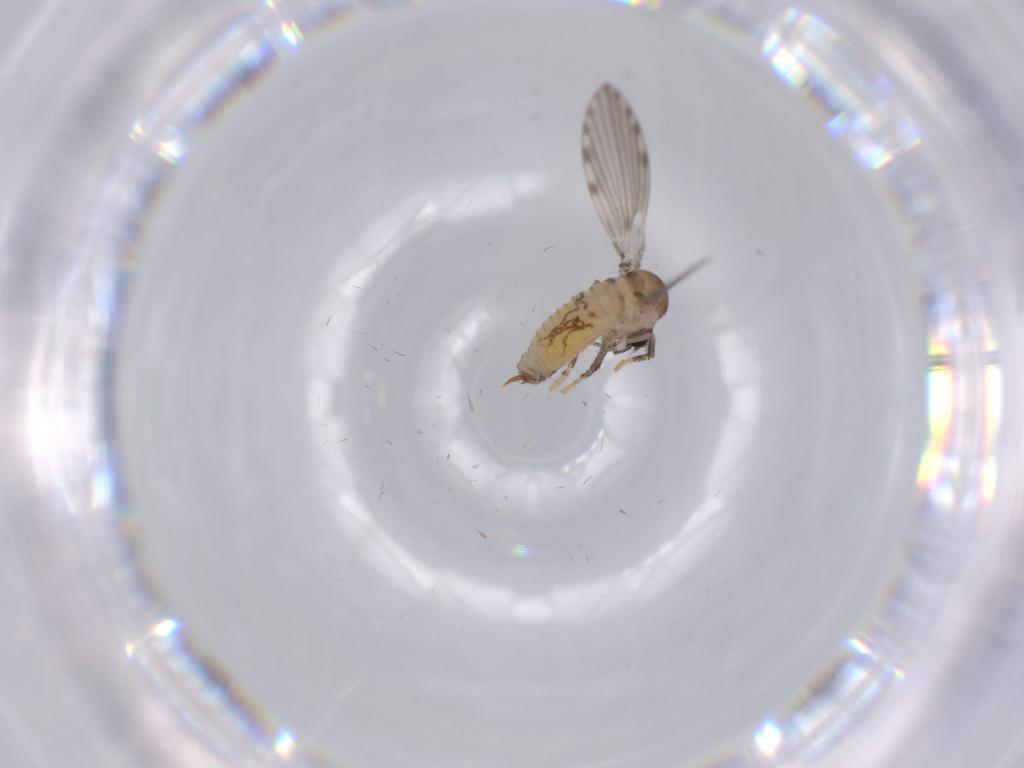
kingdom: Animalia
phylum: Arthropoda
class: Insecta
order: Diptera
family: Psychodidae
